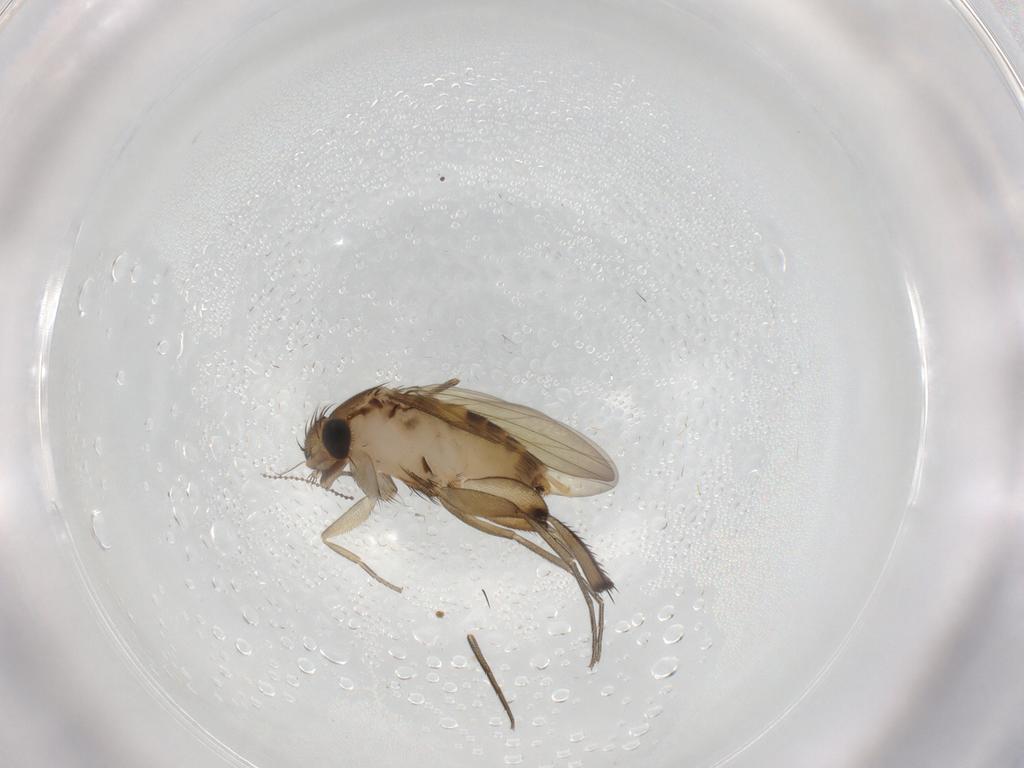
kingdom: Animalia
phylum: Arthropoda
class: Insecta
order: Diptera
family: Cecidomyiidae
